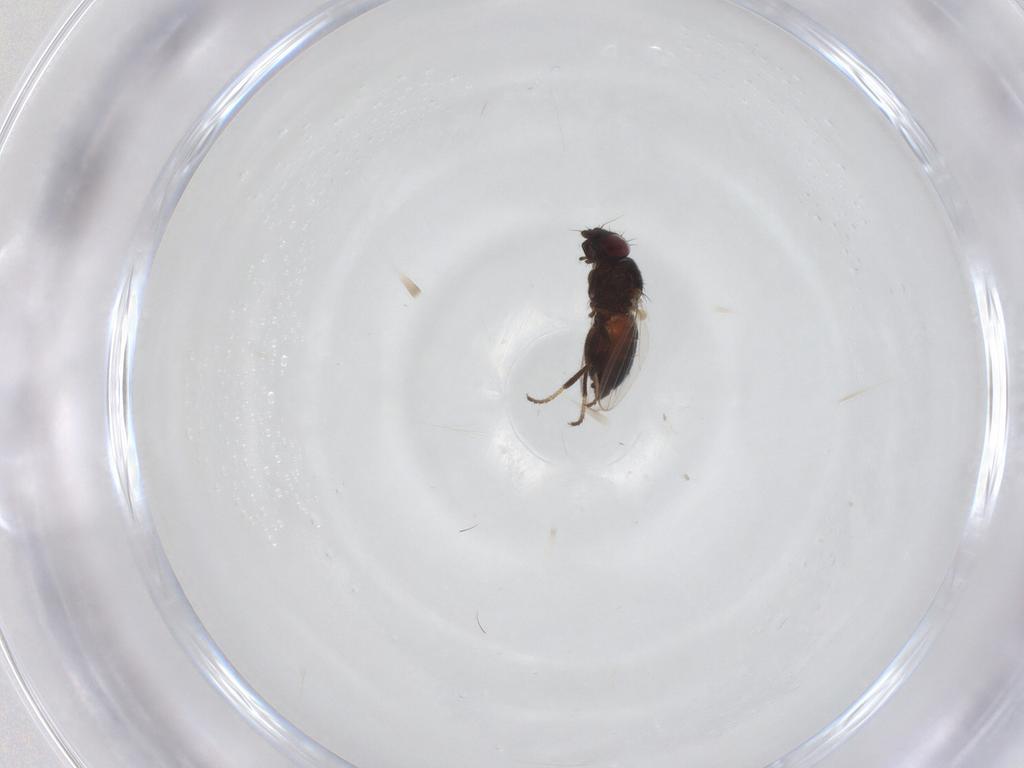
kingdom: Animalia
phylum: Arthropoda
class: Insecta
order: Diptera
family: Milichiidae
